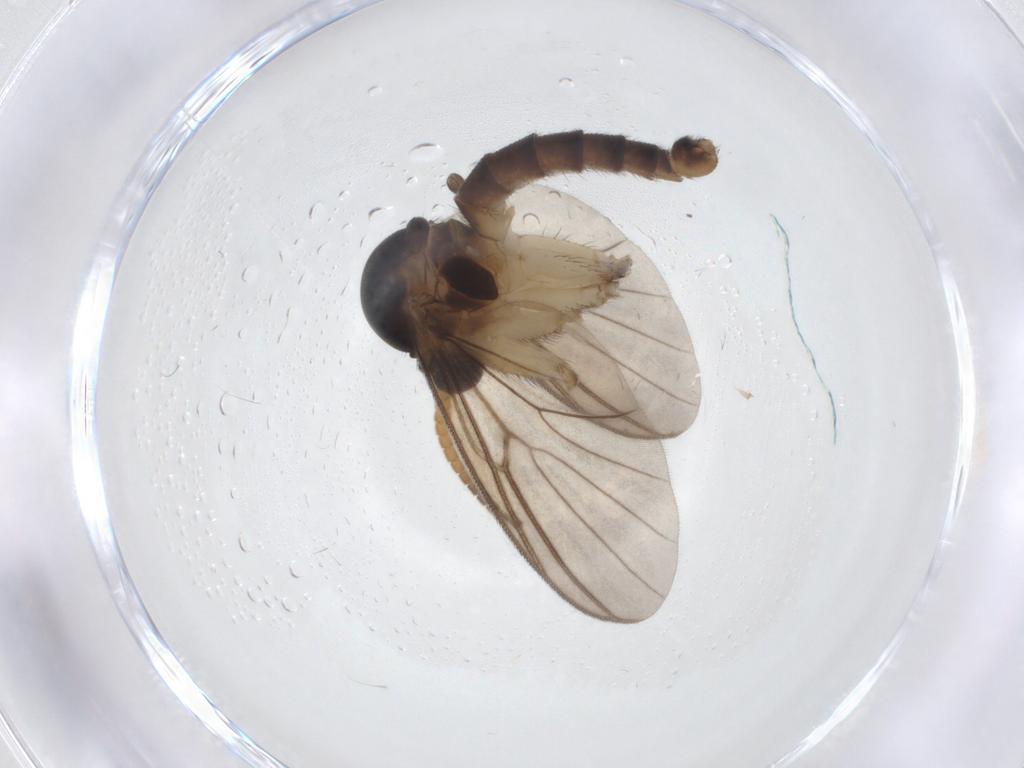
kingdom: Animalia
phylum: Arthropoda
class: Insecta
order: Diptera
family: Mycetophilidae
